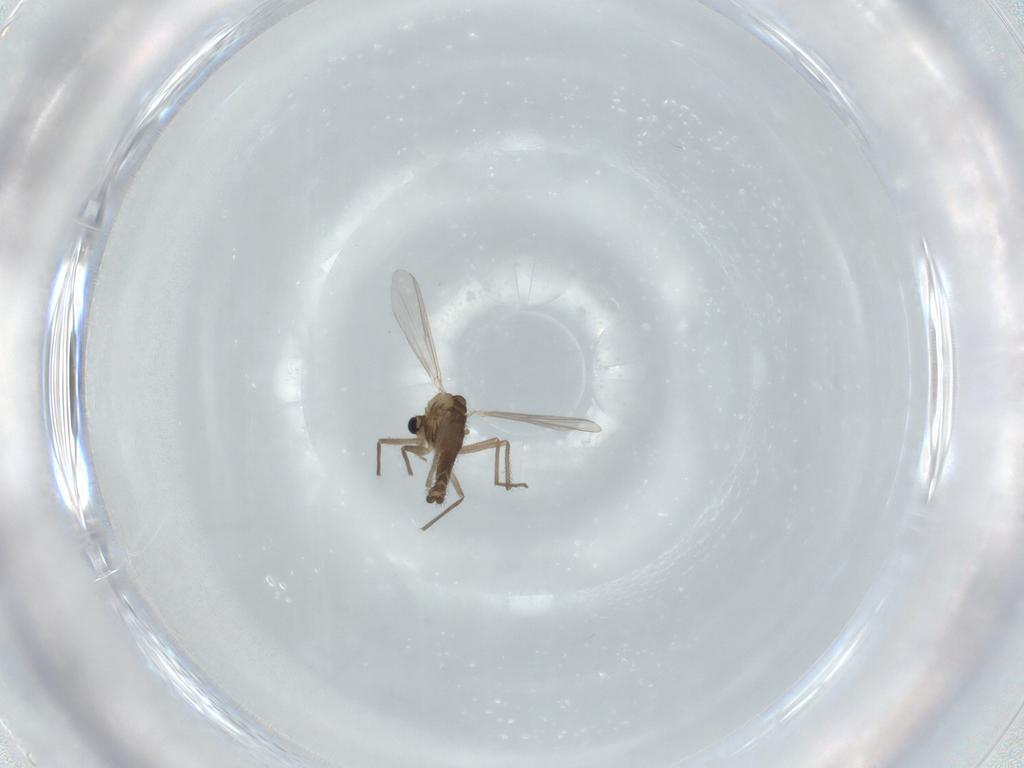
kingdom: Animalia
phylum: Arthropoda
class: Insecta
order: Diptera
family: Chironomidae
